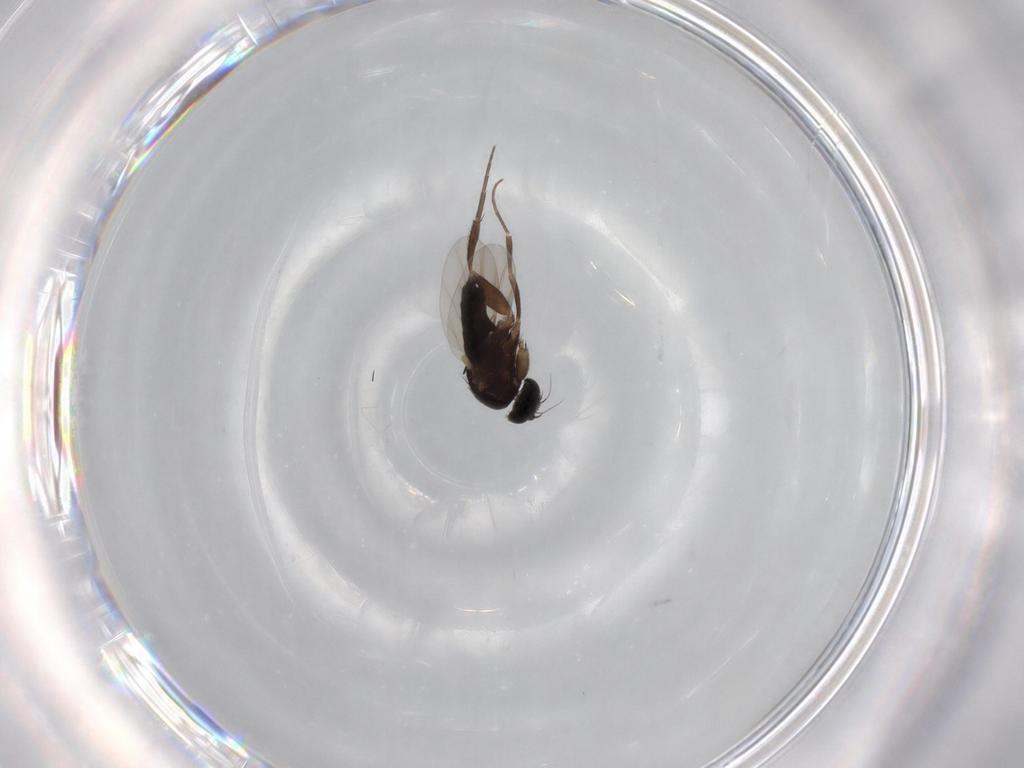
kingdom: Animalia
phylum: Arthropoda
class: Insecta
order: Diptera
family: Phoridae
